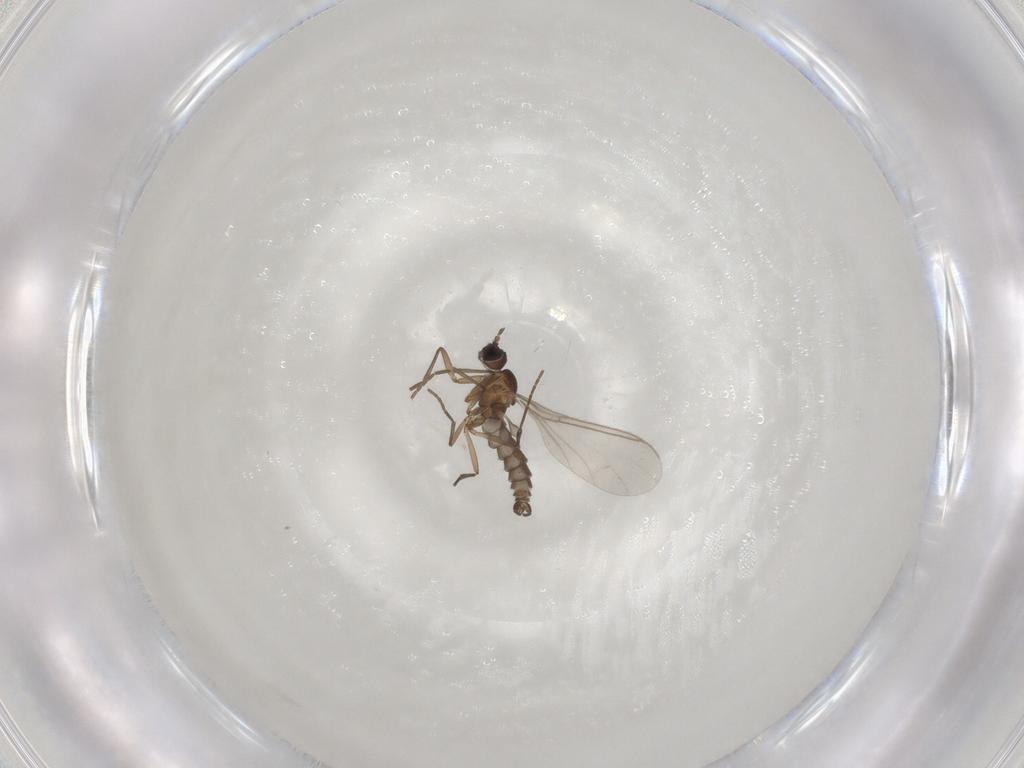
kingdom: Animalia
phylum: Arthropoda
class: Insecta
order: Diptera
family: Sciaridae
